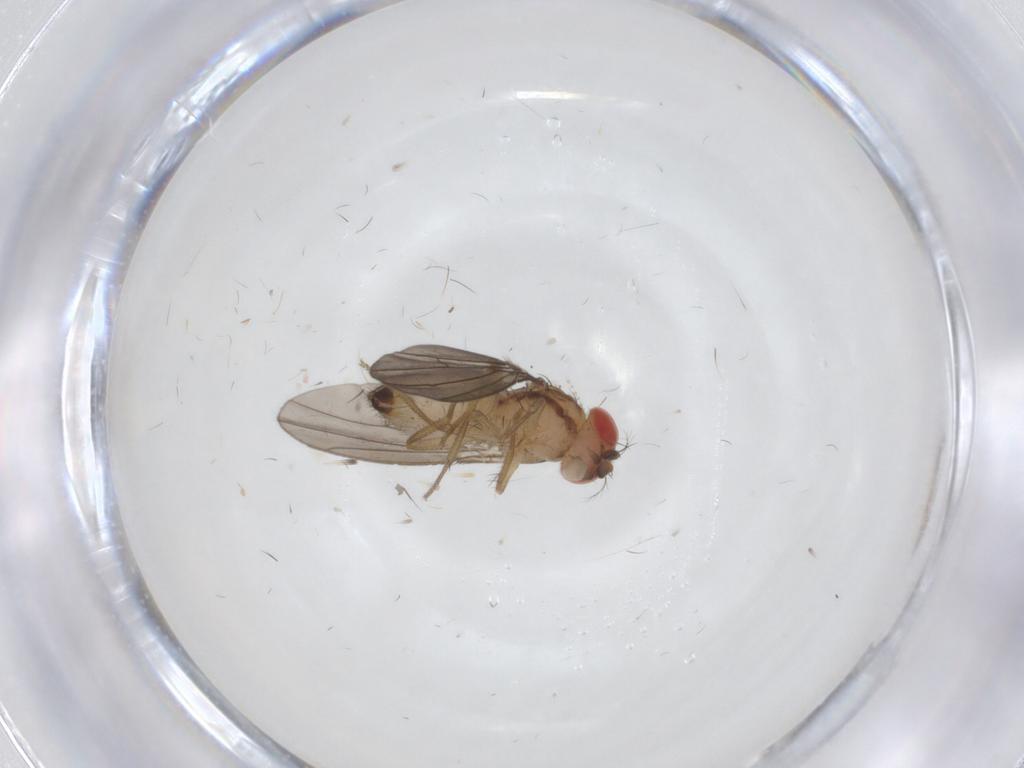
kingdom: Animalia
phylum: Arthropoda
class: Insecta
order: Diptera
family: Drosophilidae
